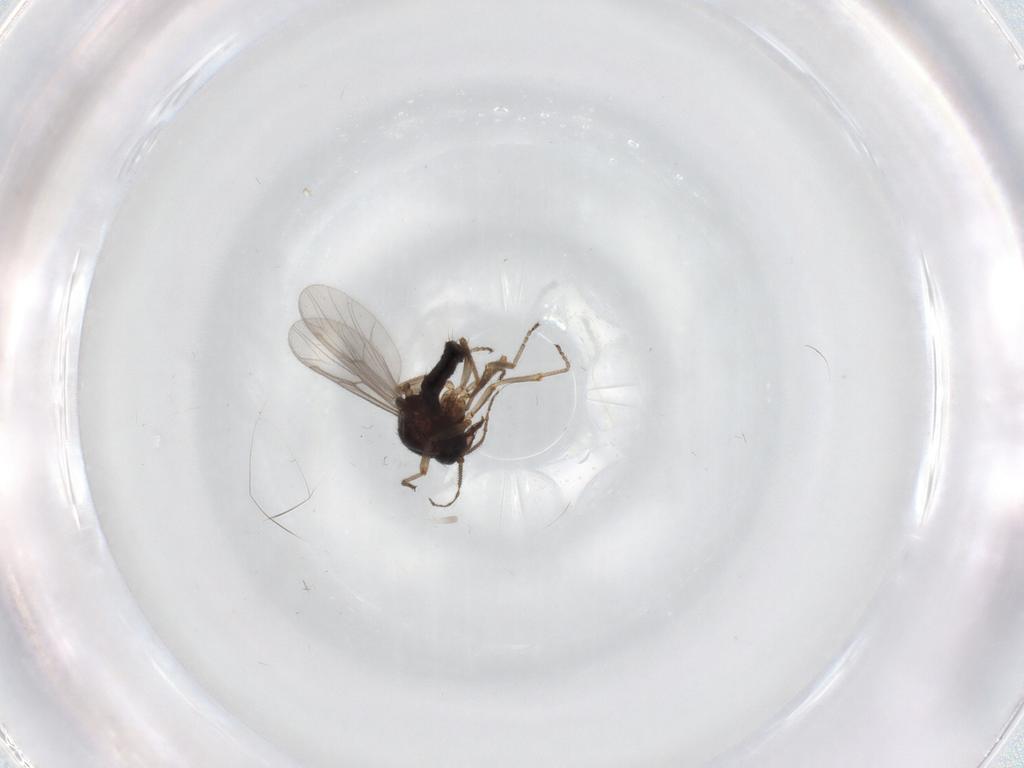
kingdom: Animalia
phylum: Arthropoda
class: Insecta
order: Diptera
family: Ceratopogonidae
